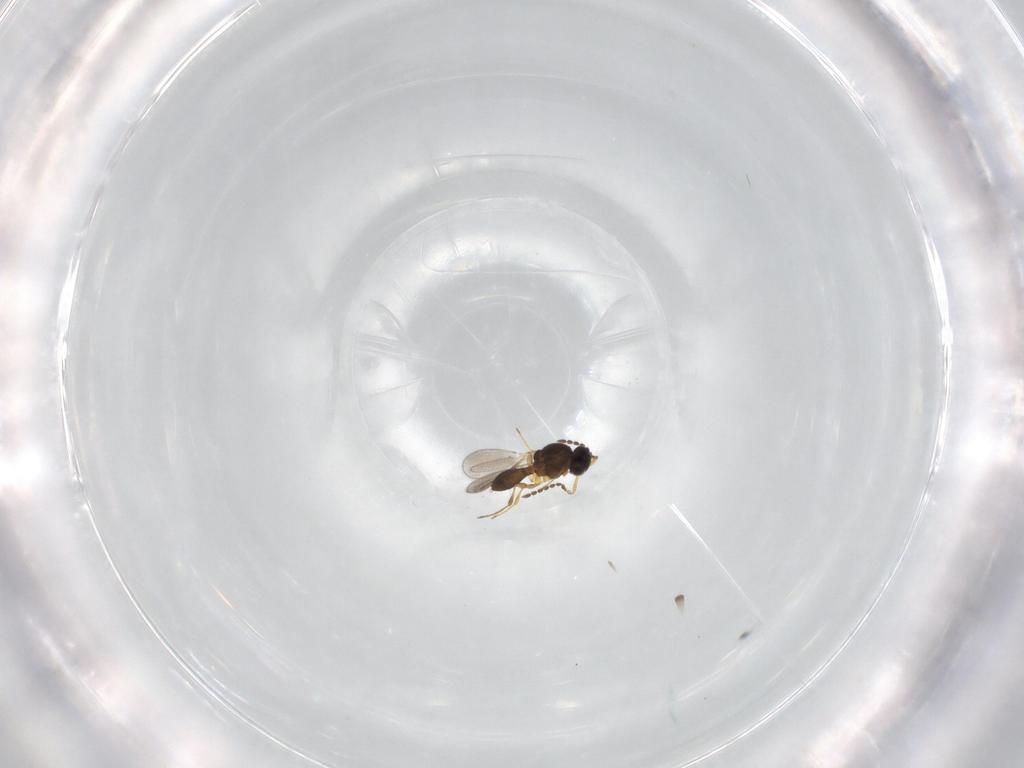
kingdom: Animalia
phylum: Arthropoda
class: Insecta
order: Hymenoptera
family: Platygastridae
